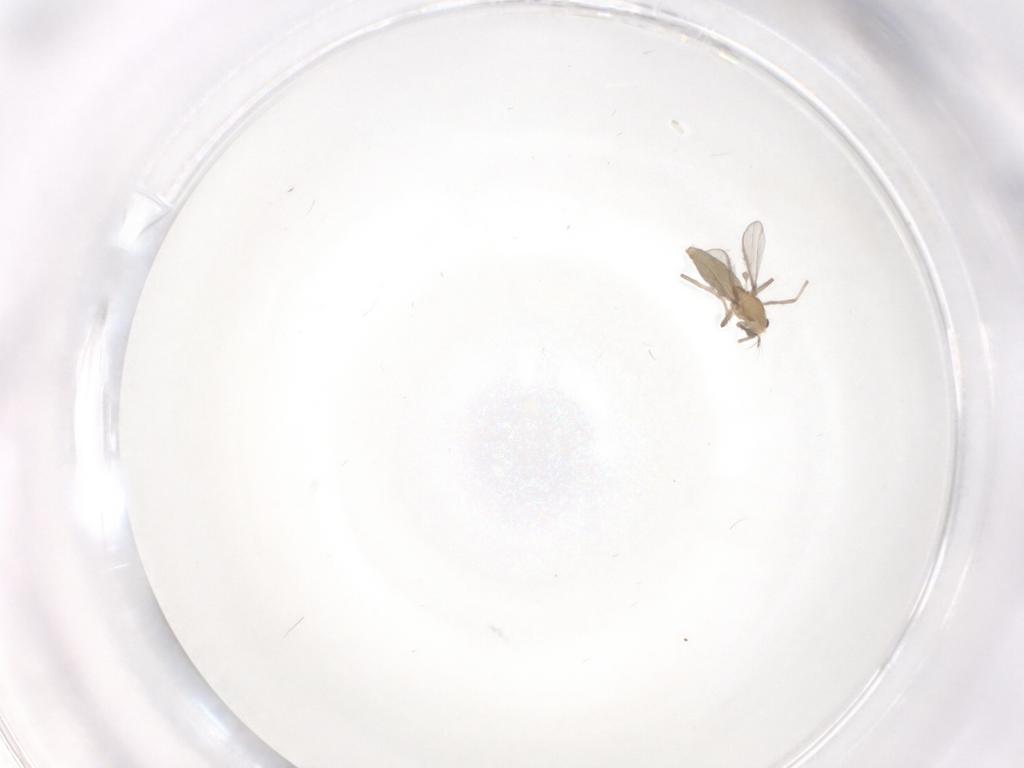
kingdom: Animalia
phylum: Arthropoda
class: Insecta
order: Diptera
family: Chironomidae
